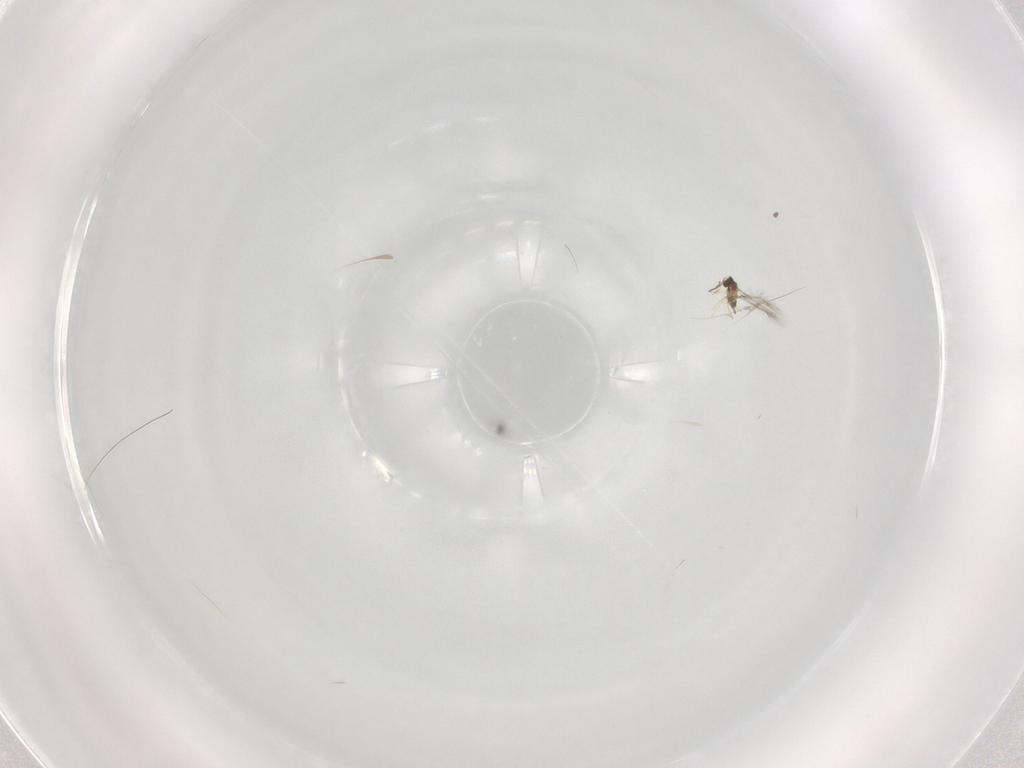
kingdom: Animalia
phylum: Arthropoda
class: Insecta
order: Hymenoptera
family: Mymaridae
